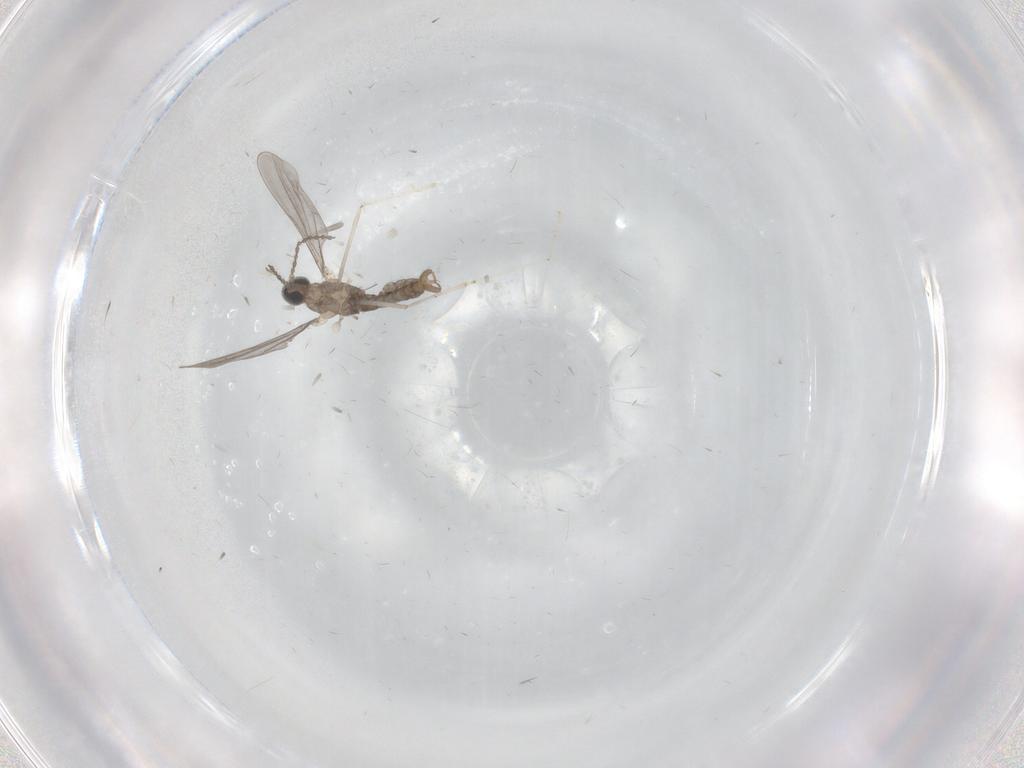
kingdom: Animalia
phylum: Arthropoda
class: Insecta
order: Diptera
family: Cecidomyiidae
